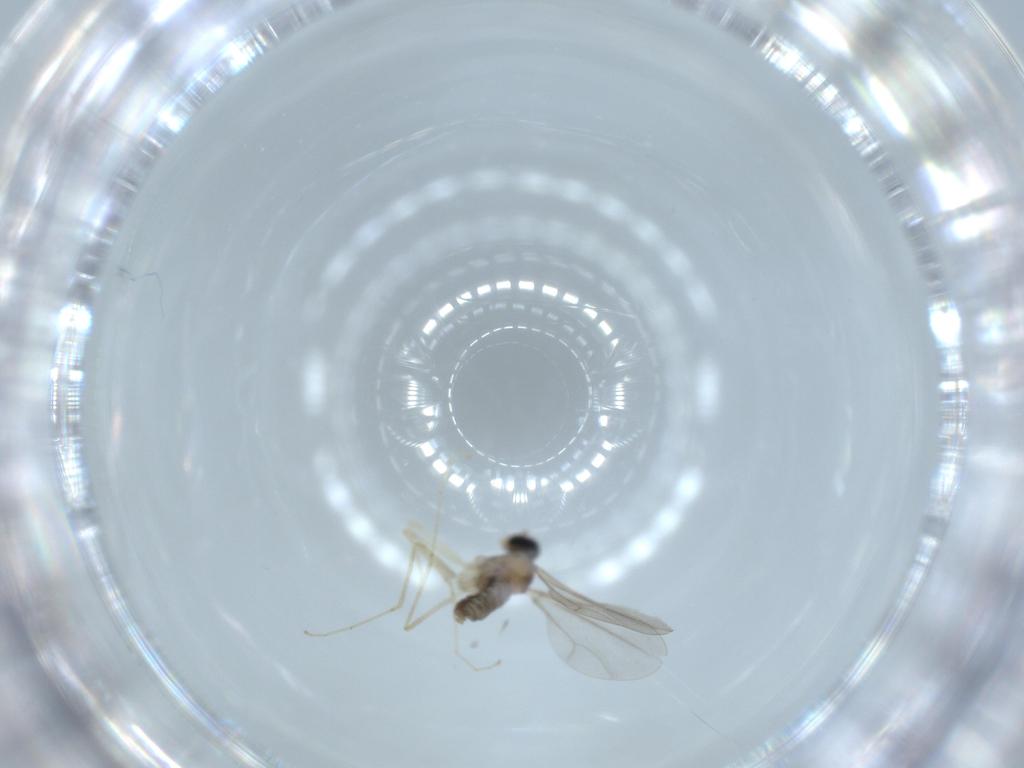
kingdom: Animalia
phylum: Arthropoda
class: Insecta
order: Diptera
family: Cecidomyiidae
